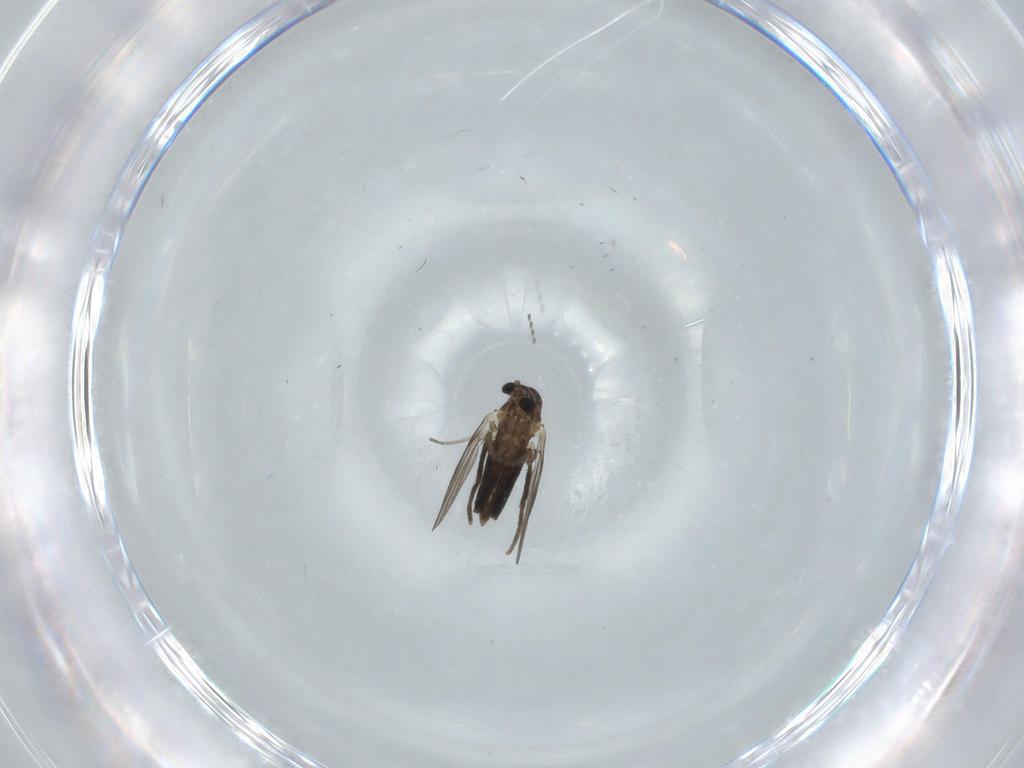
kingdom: Animalia
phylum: Arthropoda
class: Insecta
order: Diptera
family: Psychodidae
